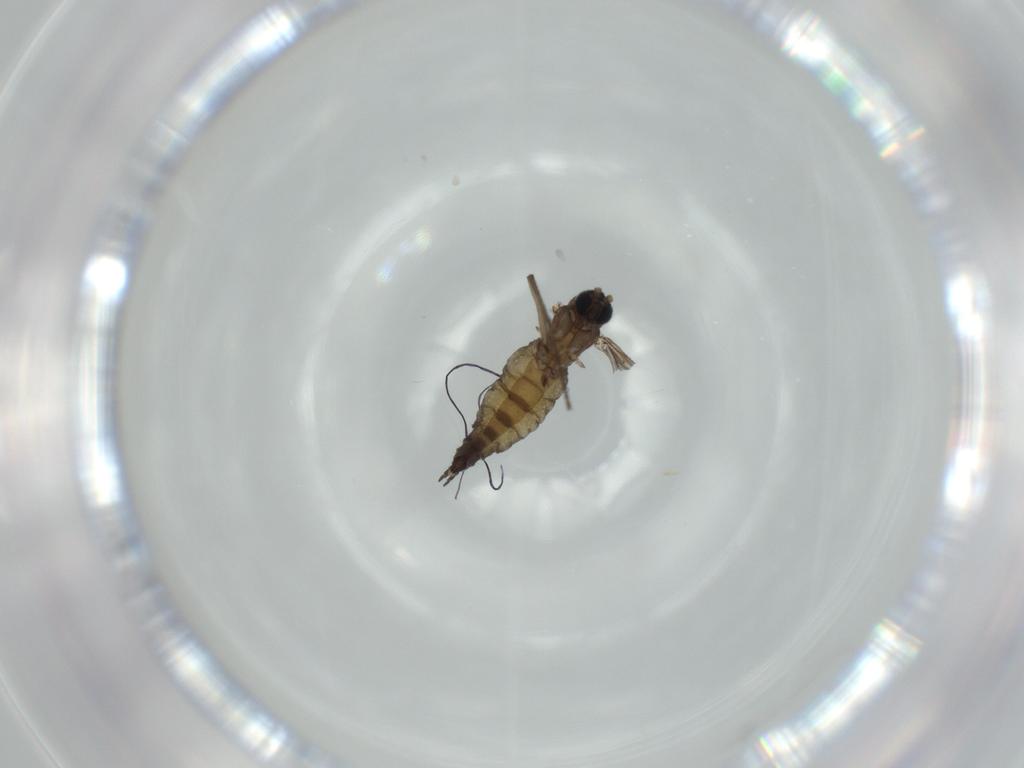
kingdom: Animalia
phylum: Arthropoda
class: Insecta
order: Diptera
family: Sciaridae
